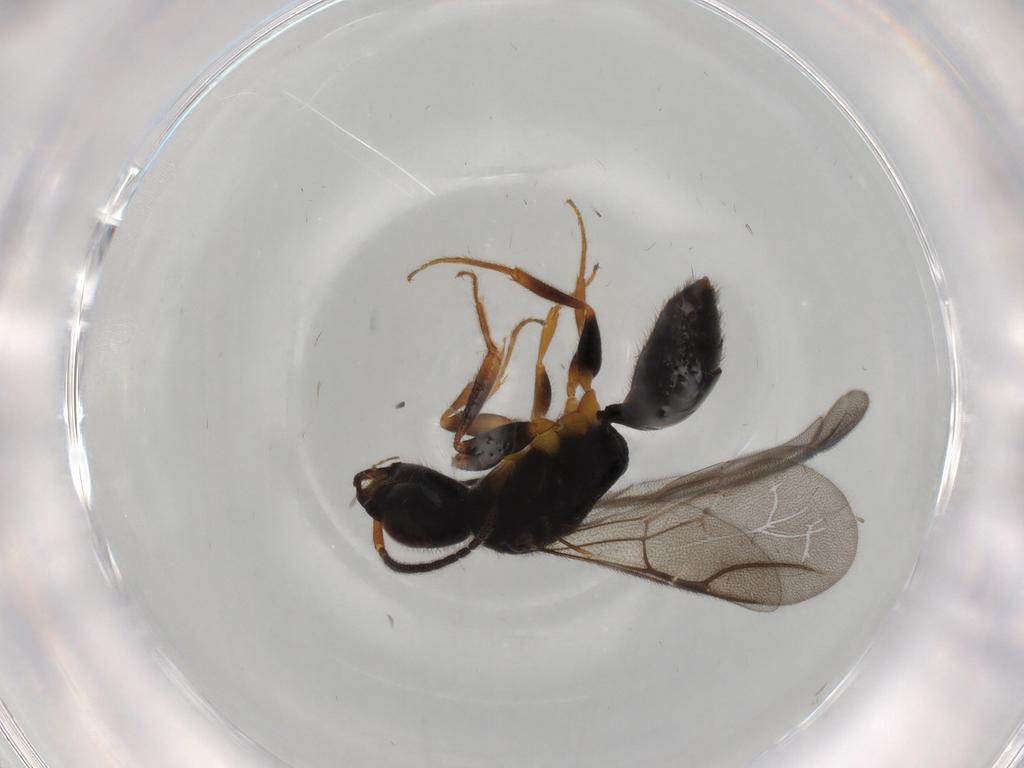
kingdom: Animalia
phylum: Arthropoda
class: Insecta
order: Hymenoptera
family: Bethylidae
